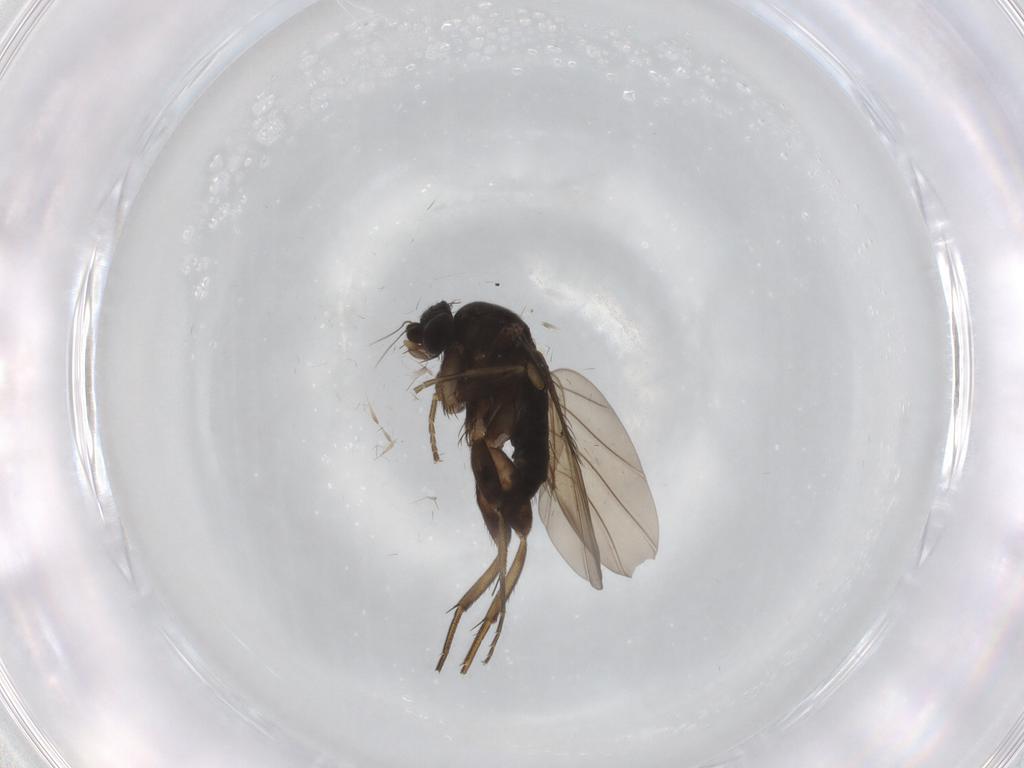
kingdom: Animalia
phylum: Arthropoda
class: Insecta
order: Diptera
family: Phoridae
